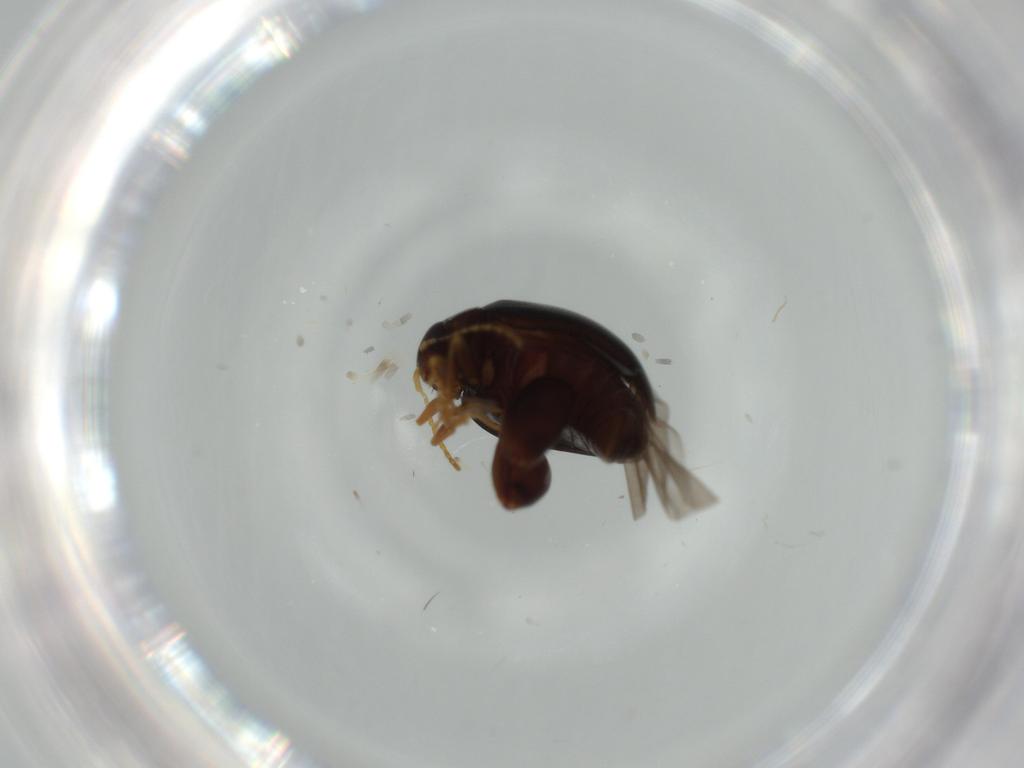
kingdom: Animalia
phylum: Arthropoda
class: Insecta
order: Coleoptera
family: Chrysomelidae
